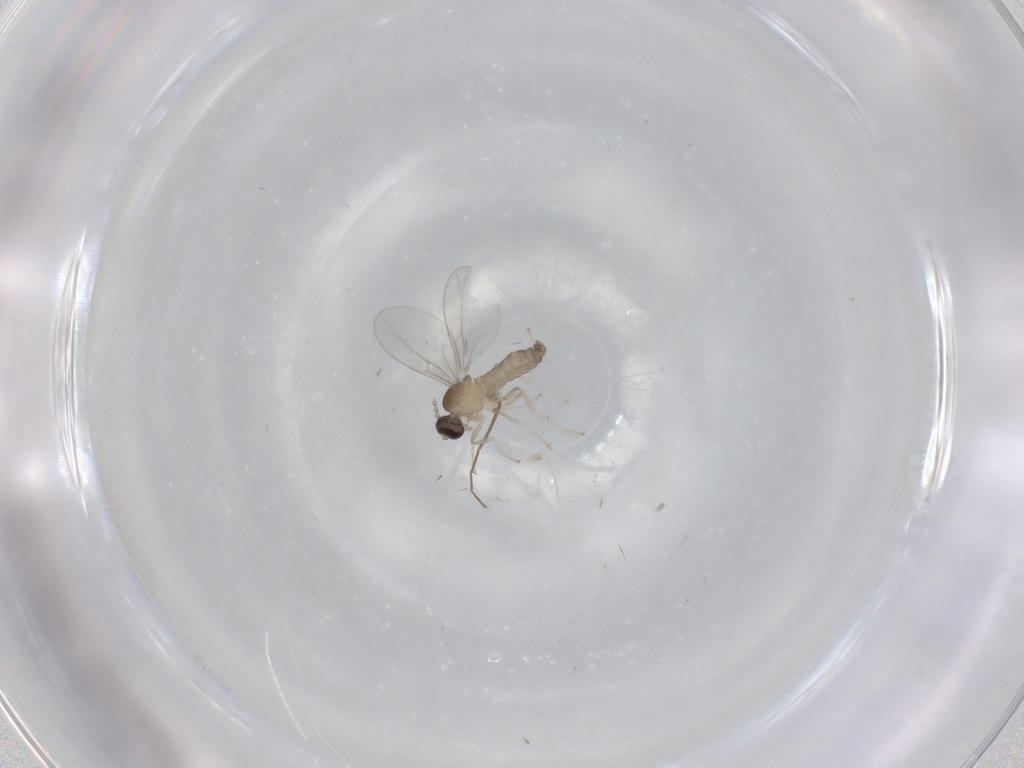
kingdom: Animalia
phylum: Arthropoda
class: Insecta
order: Diptera
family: Cecidomyiidae
